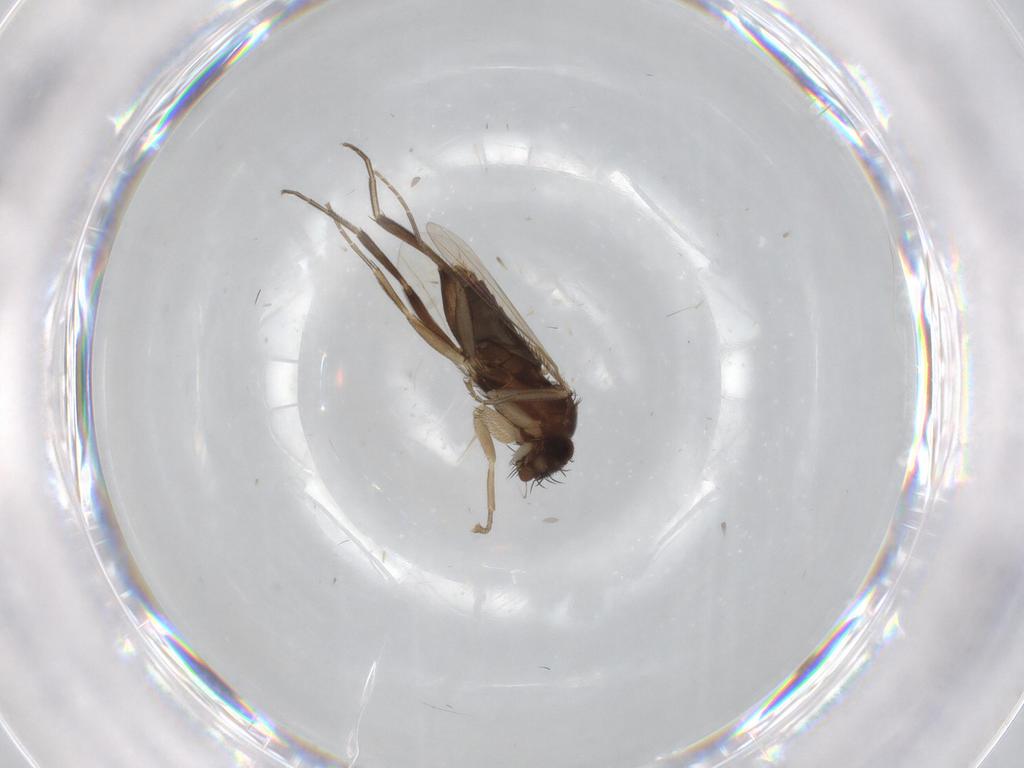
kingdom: Animalia
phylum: Arthropoda
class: Insecta
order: Diptera
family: Phoridae
